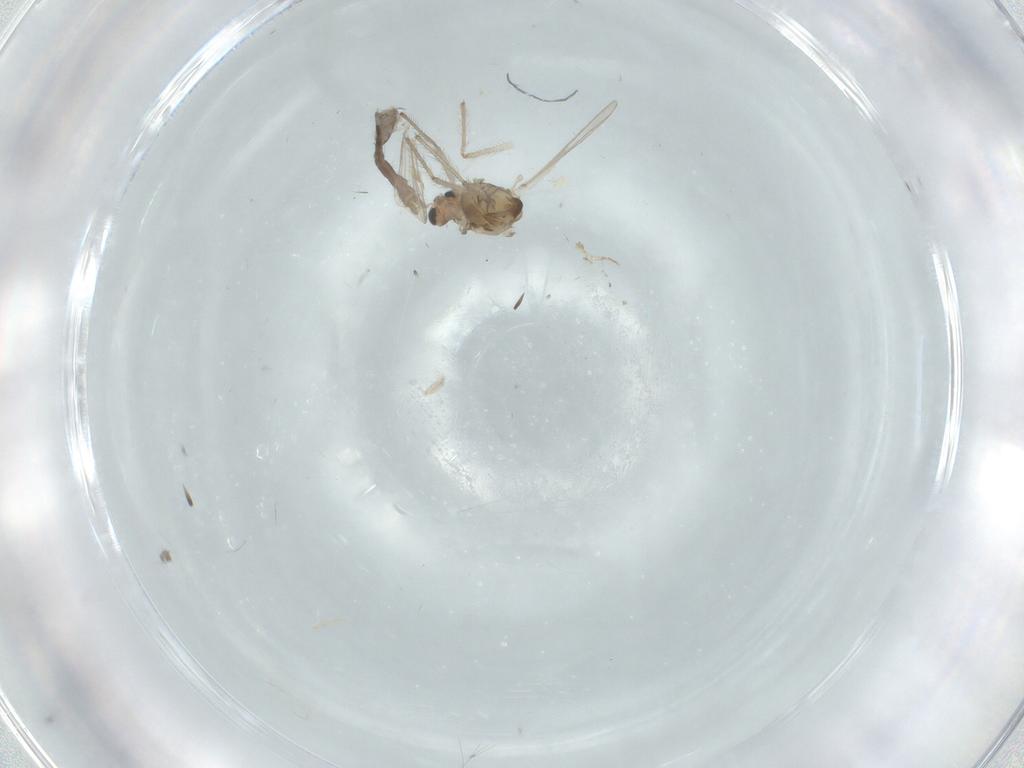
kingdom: Animalia
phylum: Arthropoda
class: Insecta
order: Diptera
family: Chironomidae
